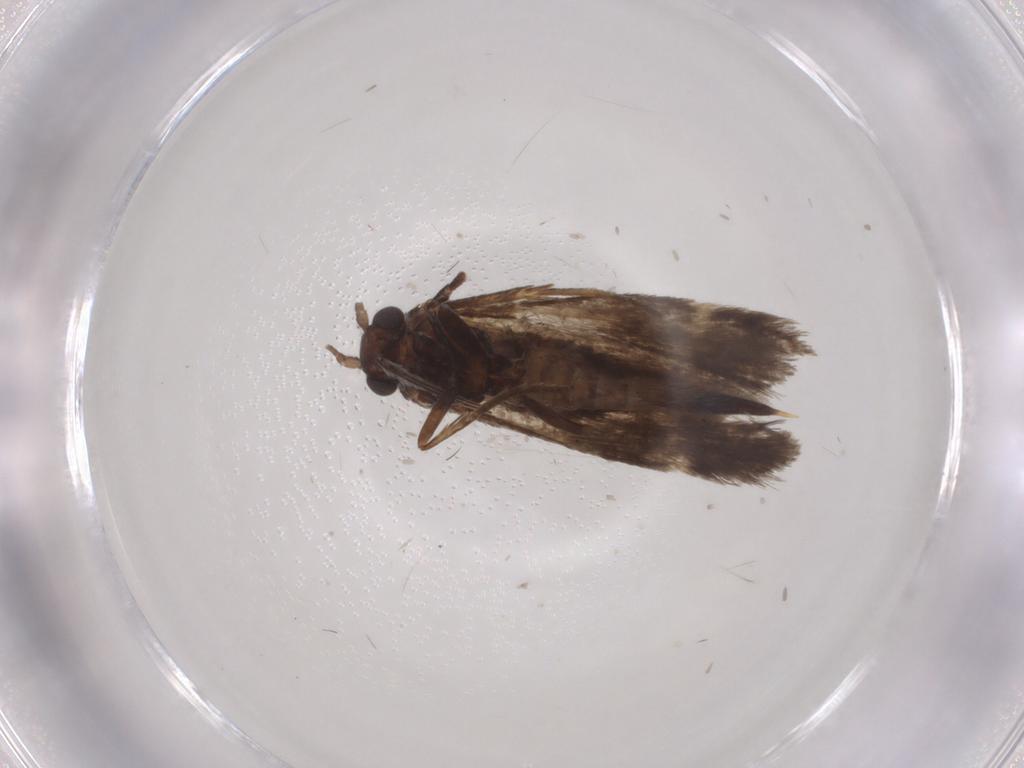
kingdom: Animalia
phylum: Arthropoda
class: Insecta
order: Lepidoptera
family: Adelidae
